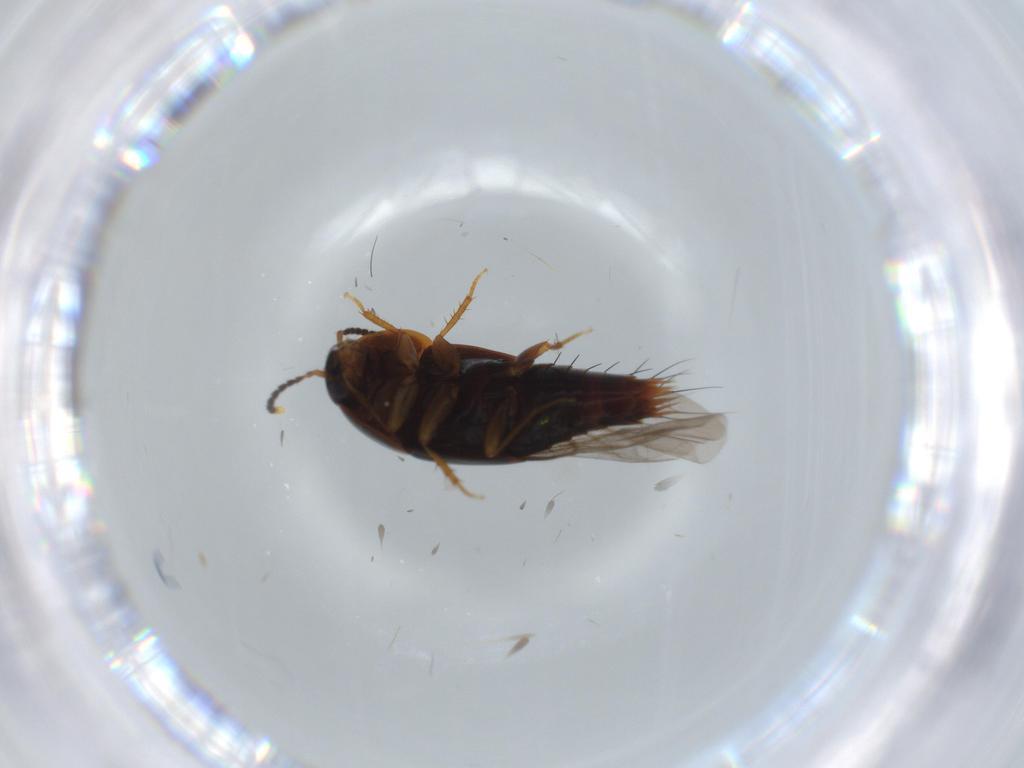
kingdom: Animalia
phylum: Arthropoda
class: Insecta
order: Coleoptera
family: Staphylinidae
